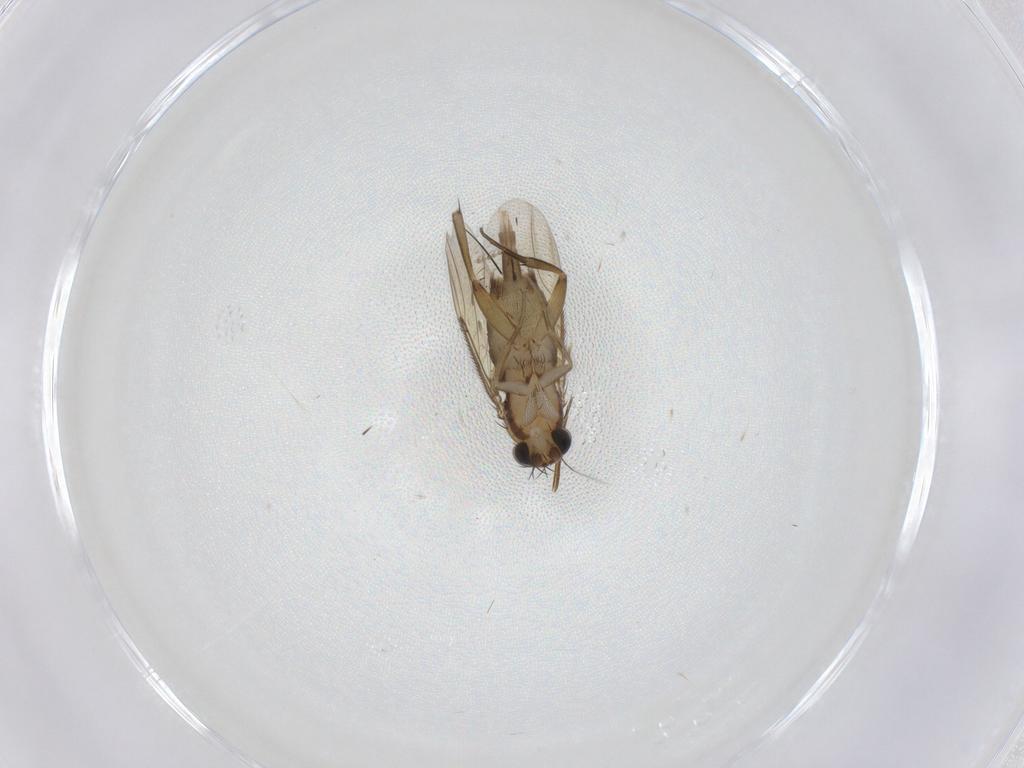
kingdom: Animalia
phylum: Arthropoda
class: Insecta
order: Diptera
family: Phoridae
